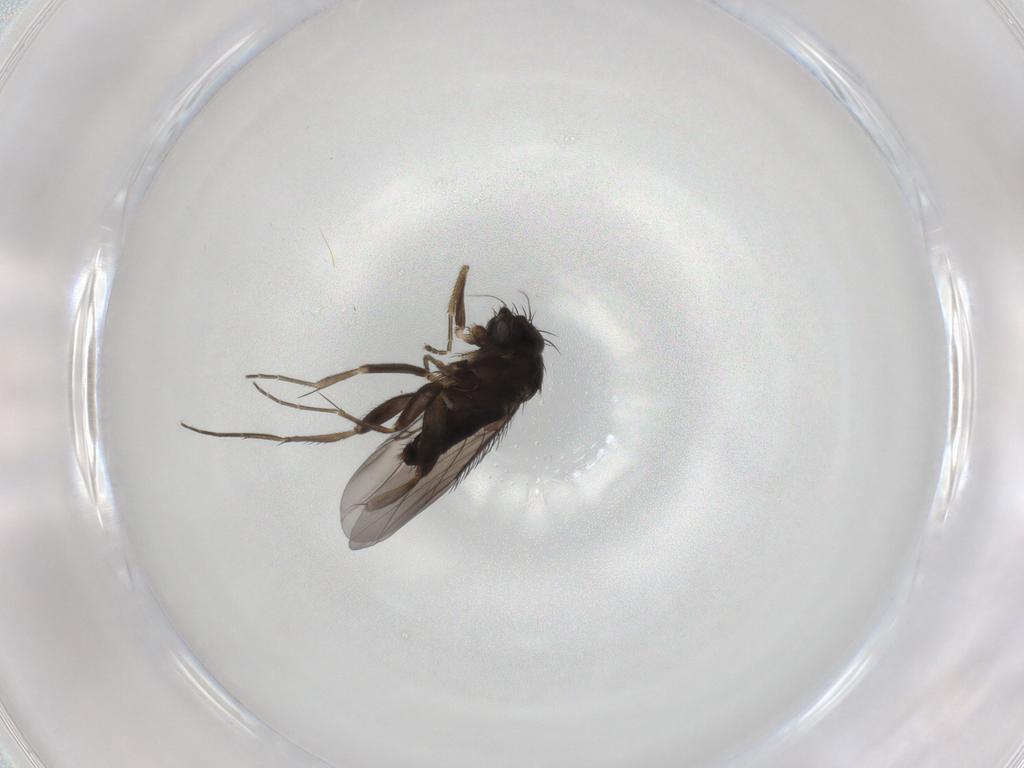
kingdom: Animalia
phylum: Arthropoda
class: Insecta
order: Diptera
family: Phoridae
